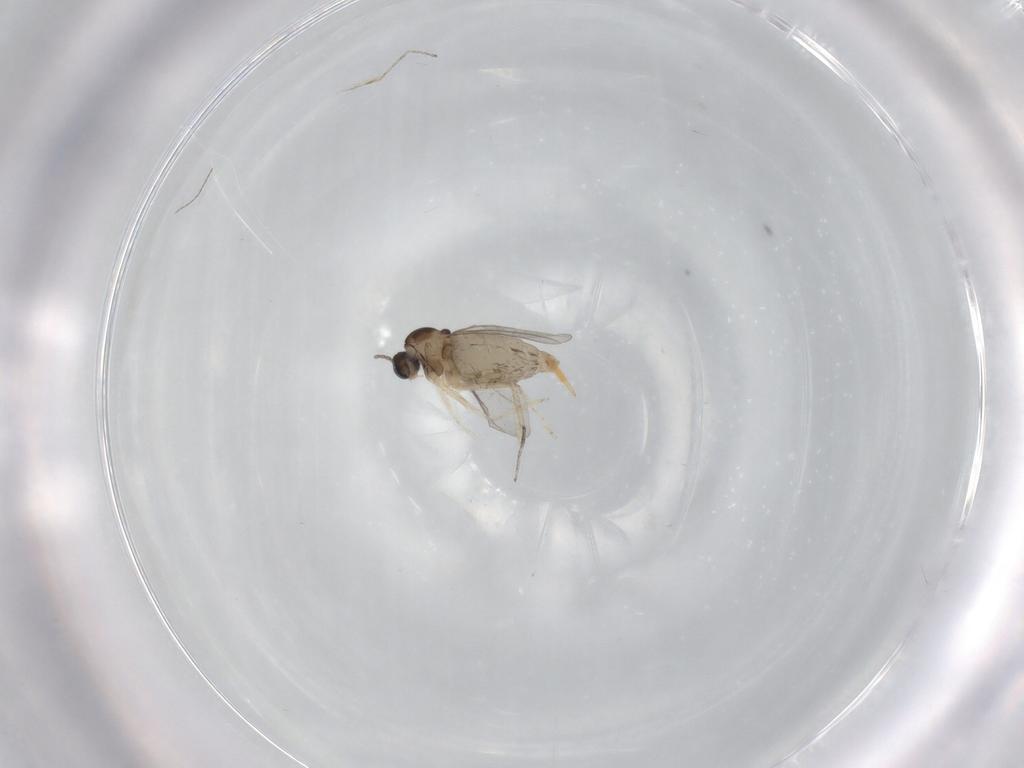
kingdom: Animalia
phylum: Arthropoda
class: Insecta
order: Diptera
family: Cecidomyiidae
